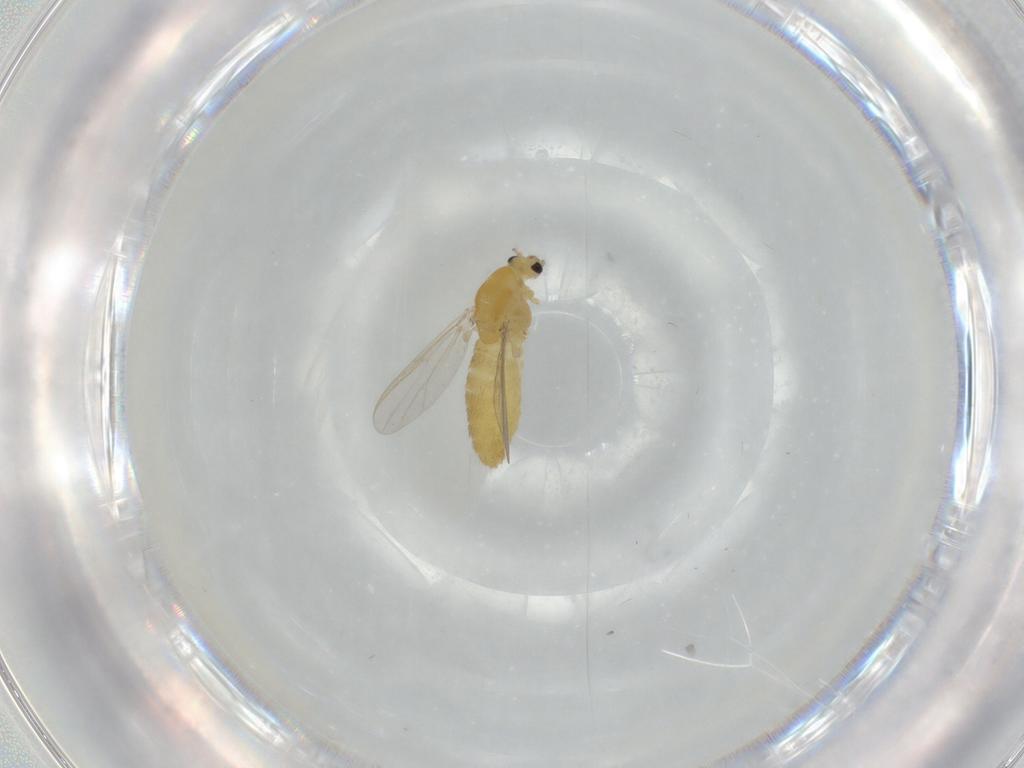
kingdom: Animalia
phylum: Arthropoda
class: Insecta
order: Diptera
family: Chironomidae
